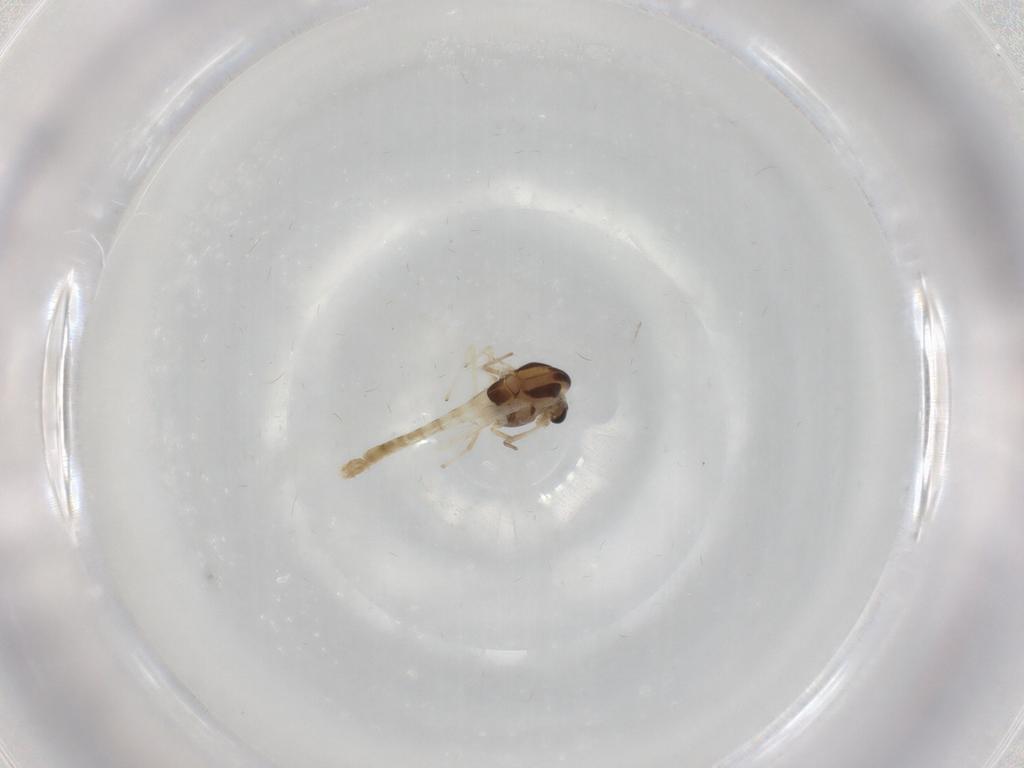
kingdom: Animalia
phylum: Arthropoda
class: Insecta
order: Diptera
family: Chironomidae
